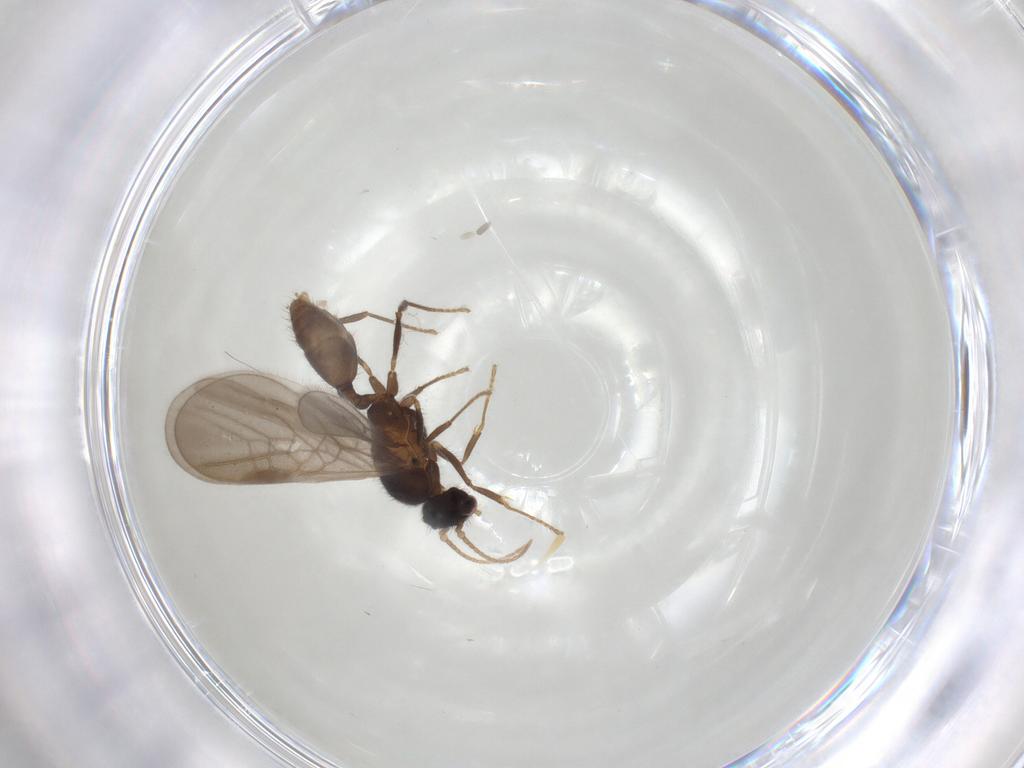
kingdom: Animalia
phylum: Arthropoda
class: Insecta
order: Hymenoptera
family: Formicidae
